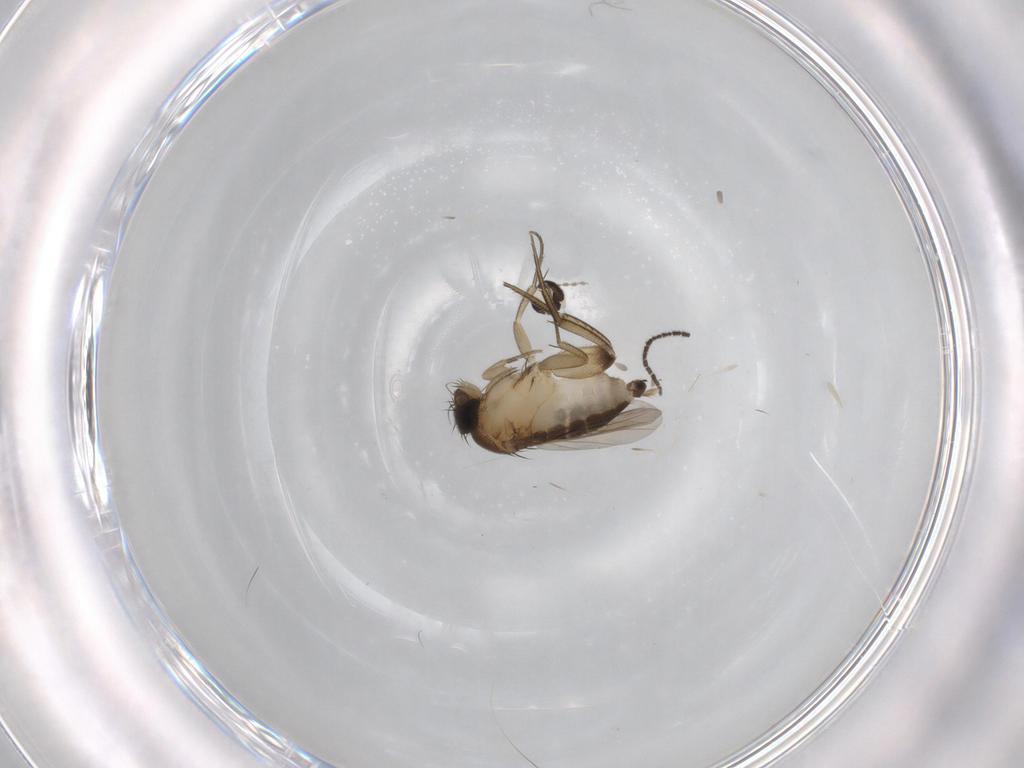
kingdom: Animalia
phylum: Arthropoda
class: Insecta
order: Diptera
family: Phoridae
